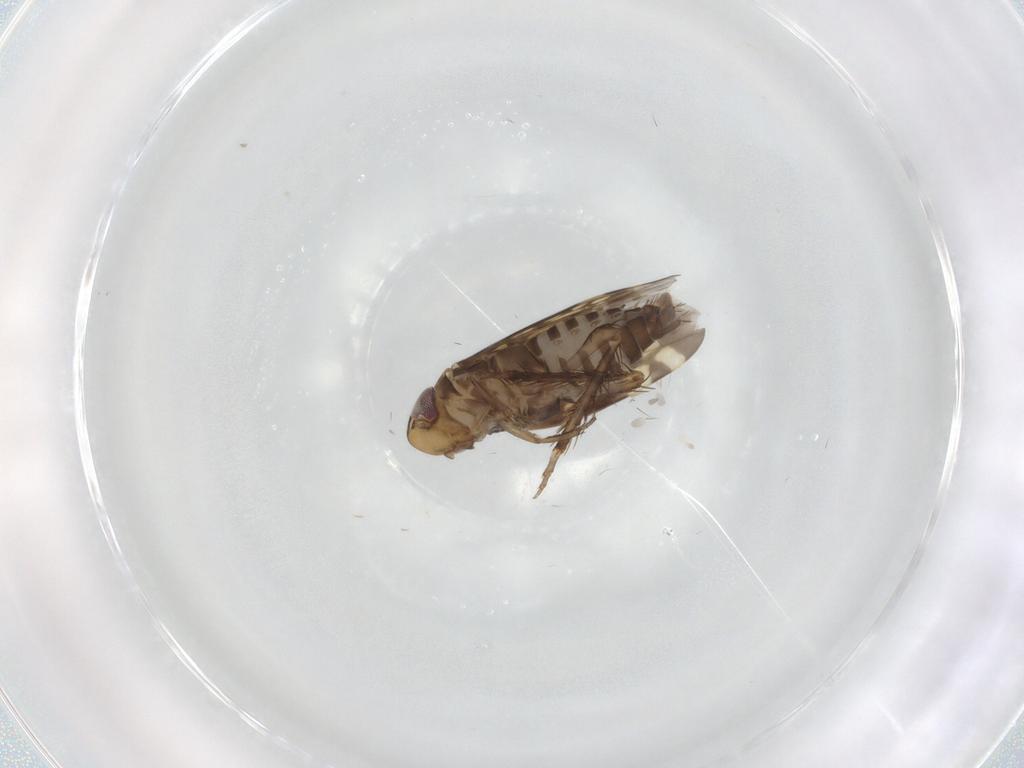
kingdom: Animalia
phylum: Arthropoda
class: Insecta
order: Hemiptera
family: Cicadellidae
